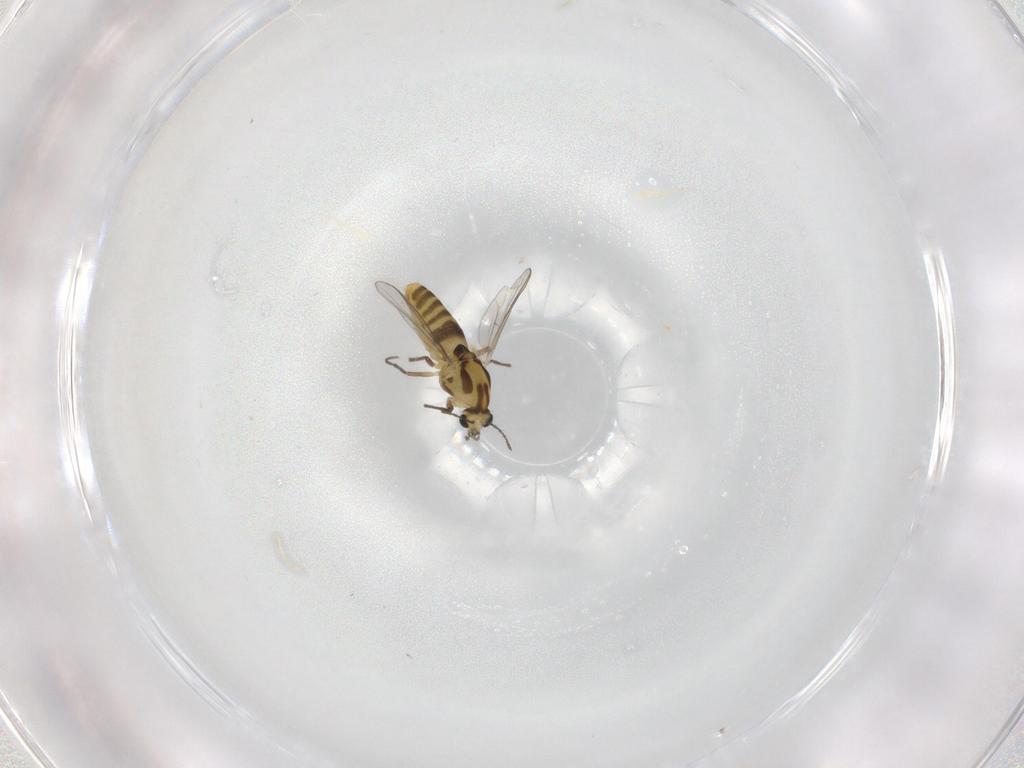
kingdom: Animalia
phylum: Arthropoda
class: Insecta
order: Diptera
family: Chironomidae
